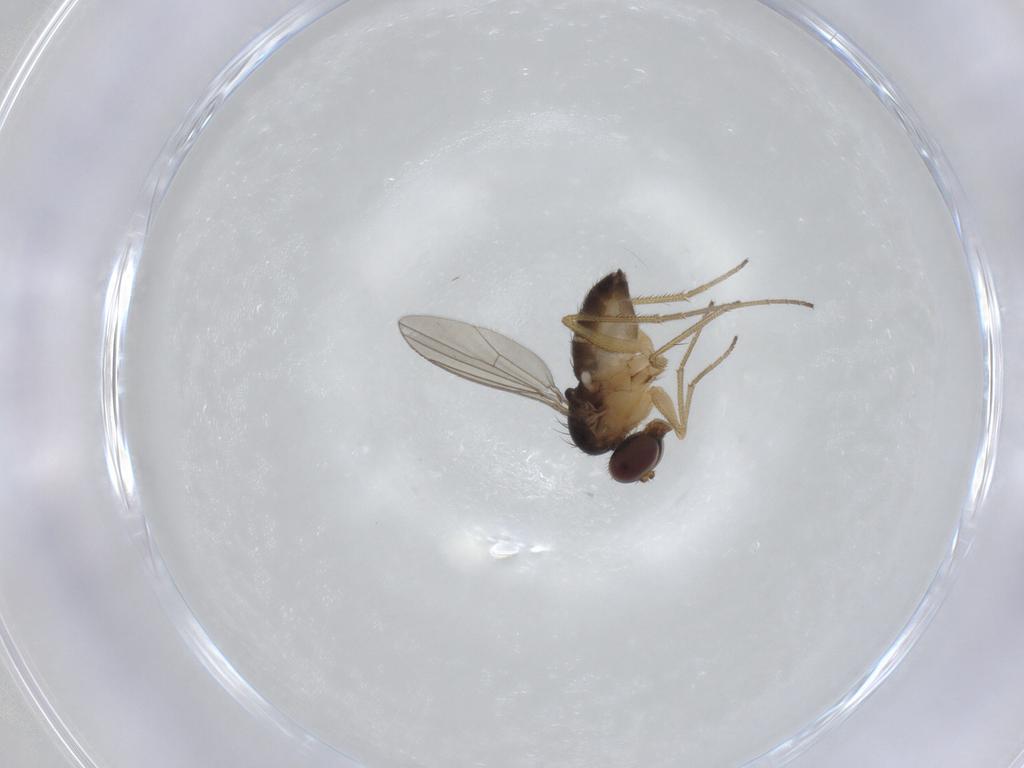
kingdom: Animalia
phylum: Arthropoda
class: Insecta
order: Diptera
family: Dolichopodidae
